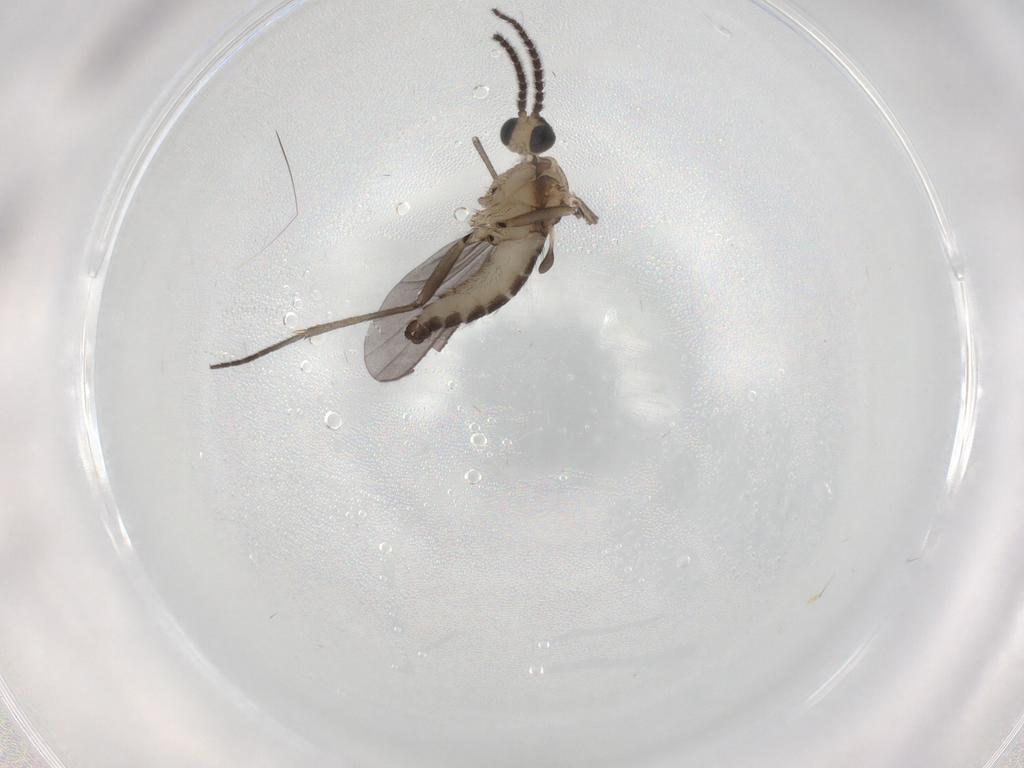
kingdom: Animalia
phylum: Arthropoda
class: Insecta
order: Diptera
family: Sciaridae
